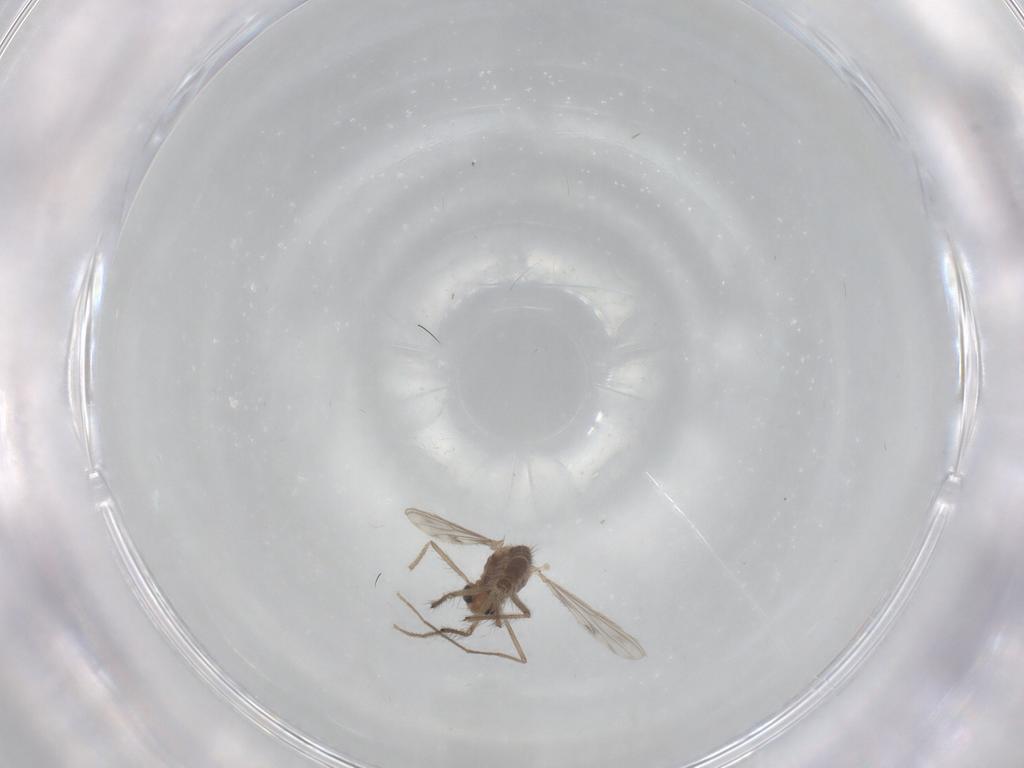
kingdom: Animalia
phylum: Arthropoda
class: Insecta
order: Diptera
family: Chironomidae
